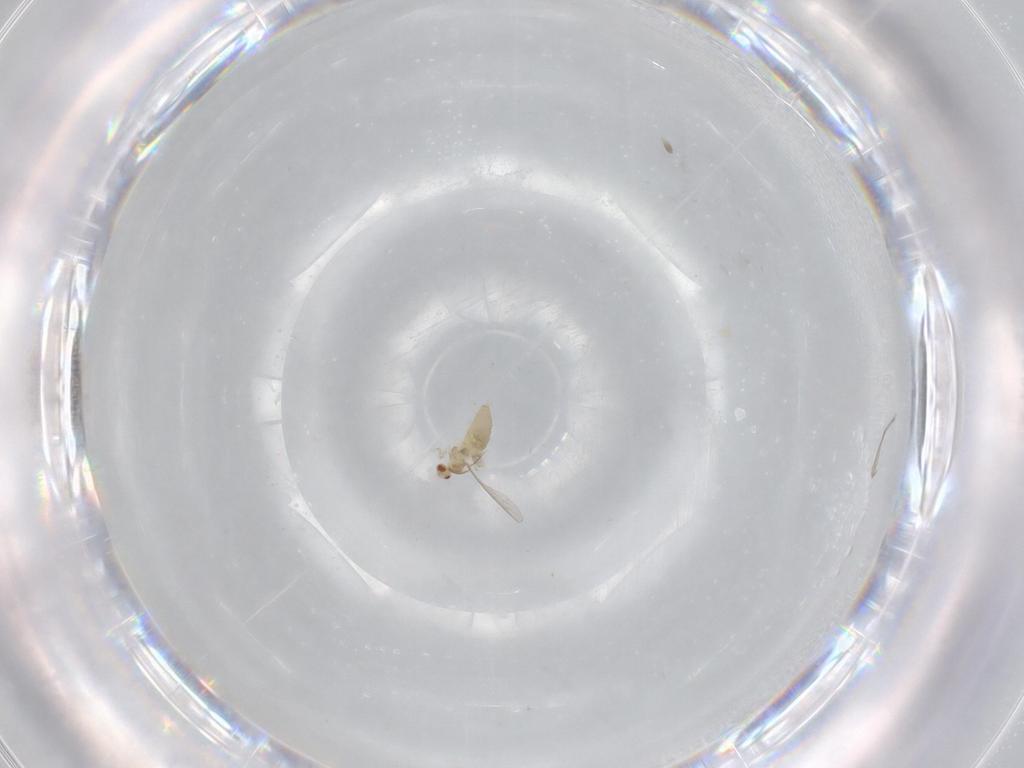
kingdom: Animalia
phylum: Arthropoda
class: Insecta
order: Diptera
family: Cecidomyiidae
